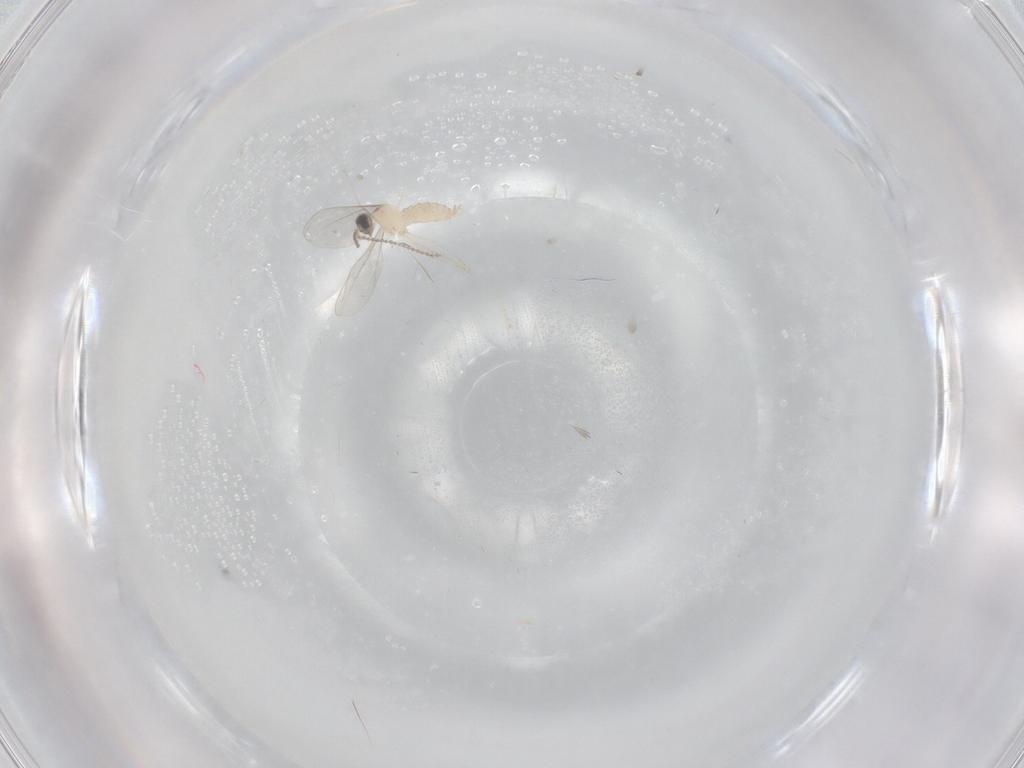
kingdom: Animalia
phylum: Arthropoda
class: Insecta
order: Diptera
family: Cecidomyiidae
